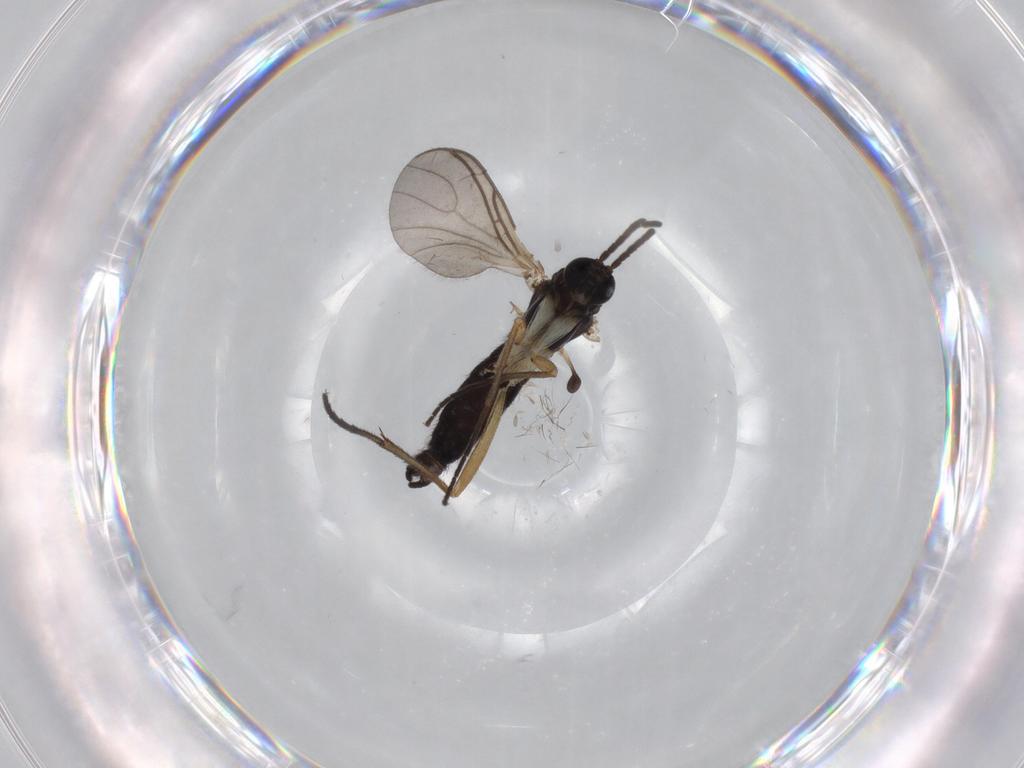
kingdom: Animalia
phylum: Arthropoda
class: Insecta
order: Diptera
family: Sciaridae
